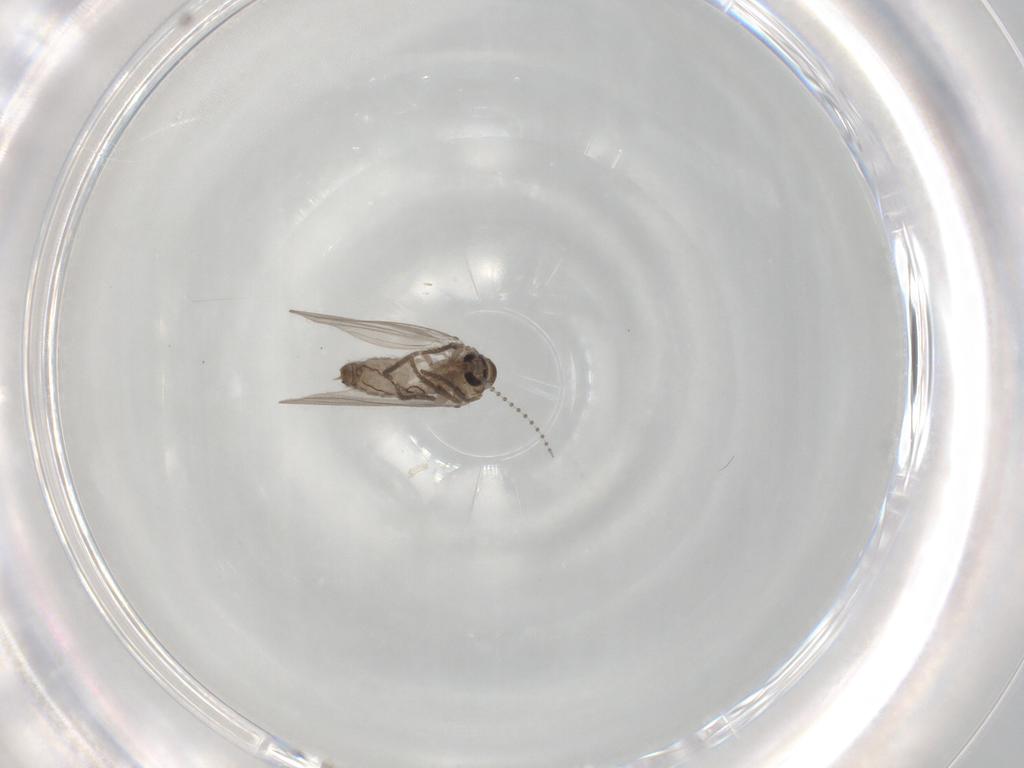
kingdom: Animalia
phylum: Arthropoda
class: Insecta
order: Diptera
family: Psychodidae
